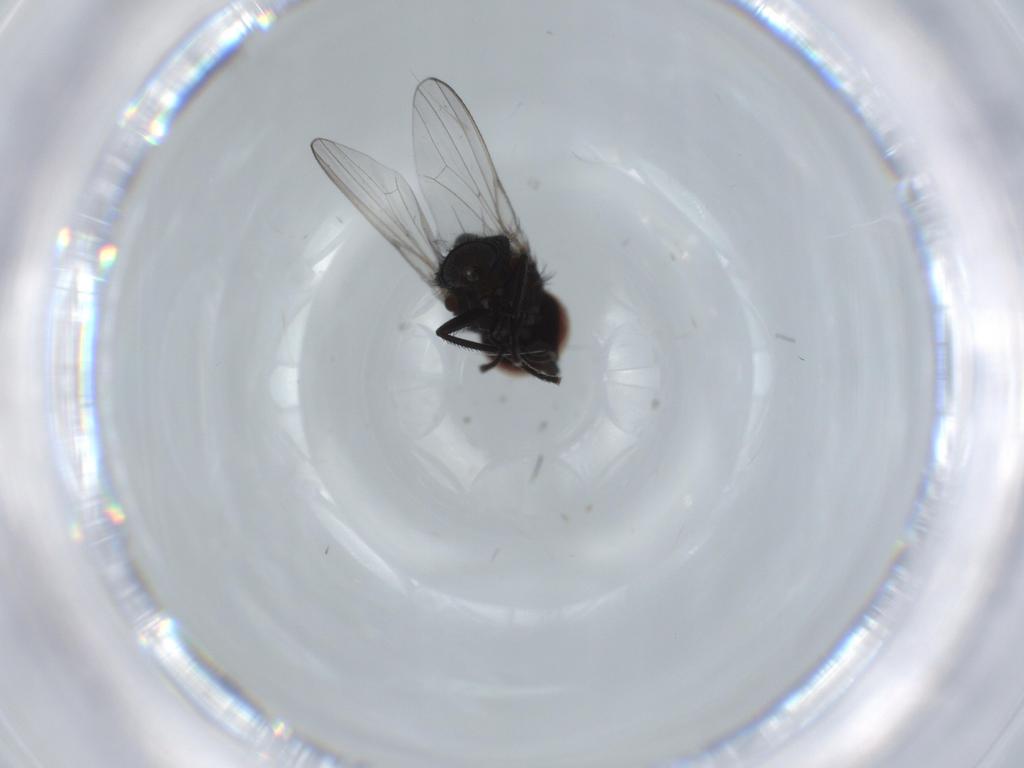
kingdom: Animalia
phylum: Arthropoda
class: Insecta
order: Diptera
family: Milichiidae
